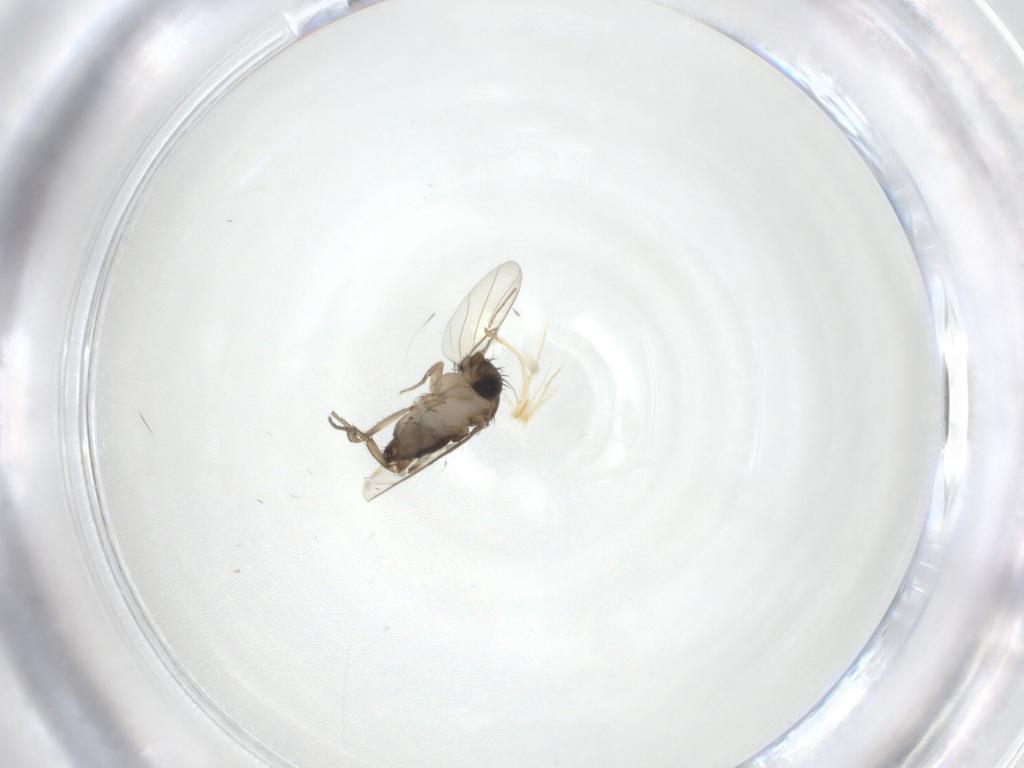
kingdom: Animalia
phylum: Arthropoda
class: Insecta
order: Diptera
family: Phoridae
